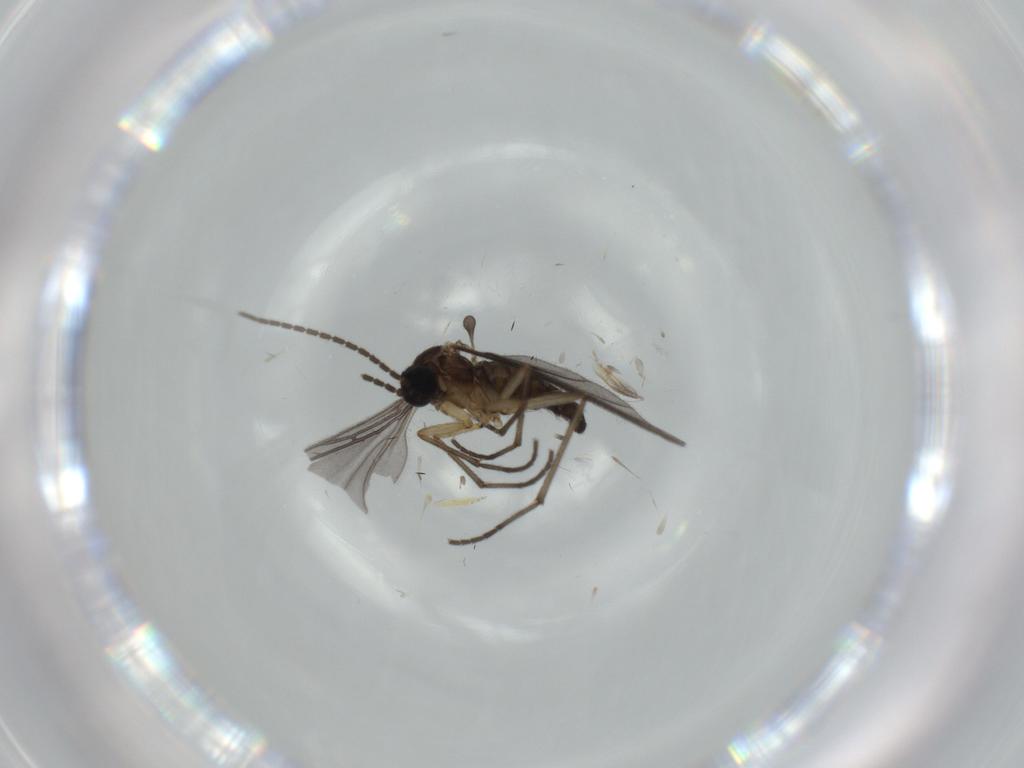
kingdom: Animalia
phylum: Arthropoda
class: Insecta
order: Diptera
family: Ceratopogonidae
